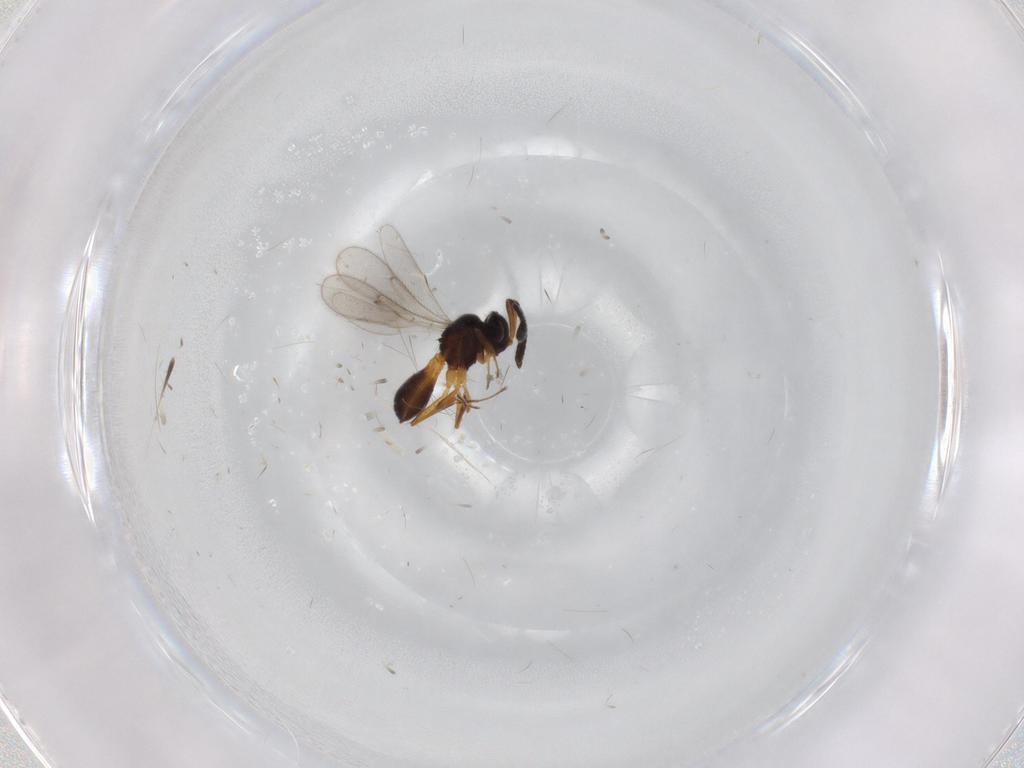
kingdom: Animalia
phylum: Arthropoda
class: Insecta
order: Hymenoptera
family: Scelionidae
